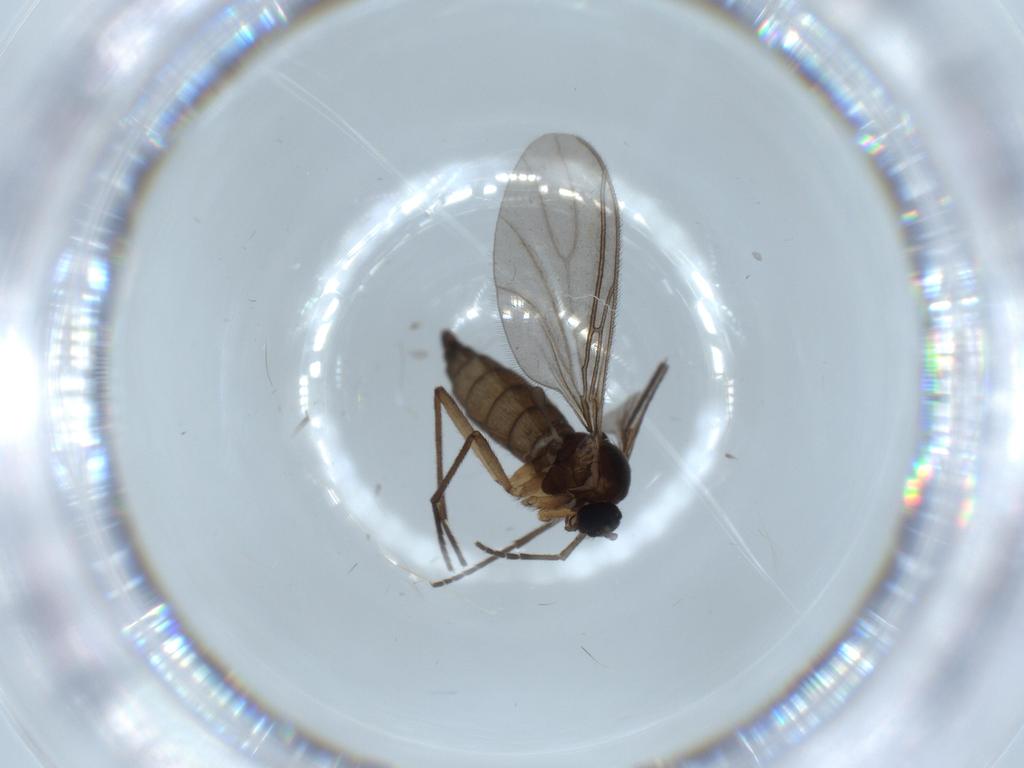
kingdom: Animalia
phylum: Arthropoda
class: Insecta
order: Diptera
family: Sciaridae
